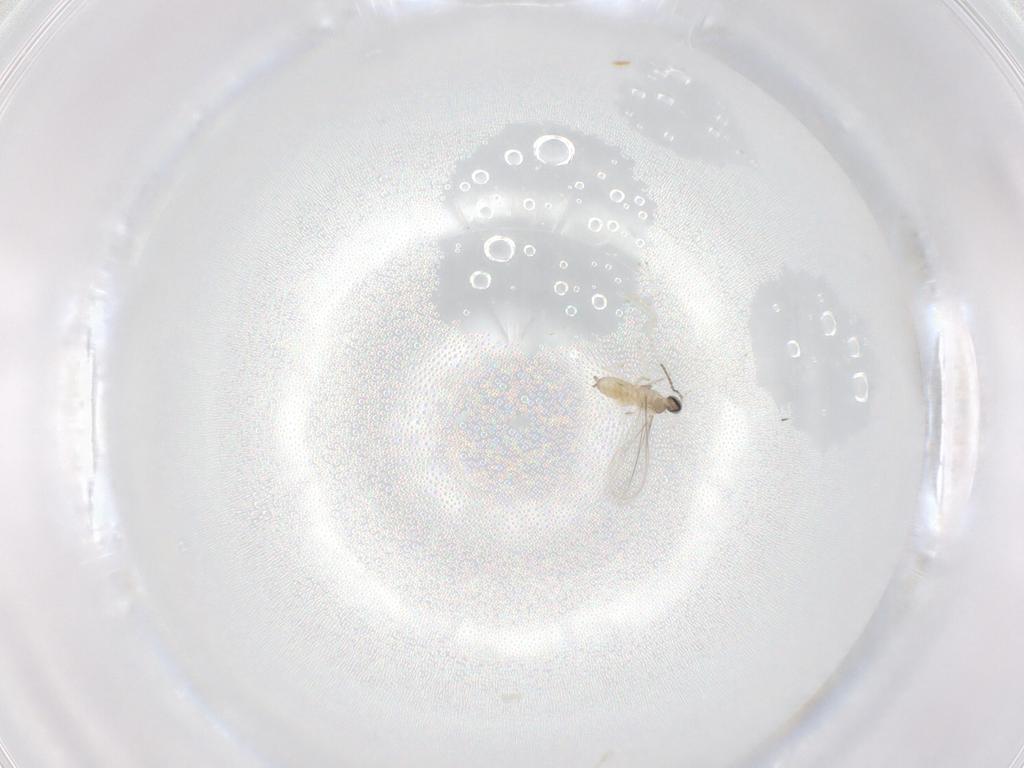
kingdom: Animalia
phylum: Arthropoda
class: Insecta
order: Diptera
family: Cecidomyiidae
